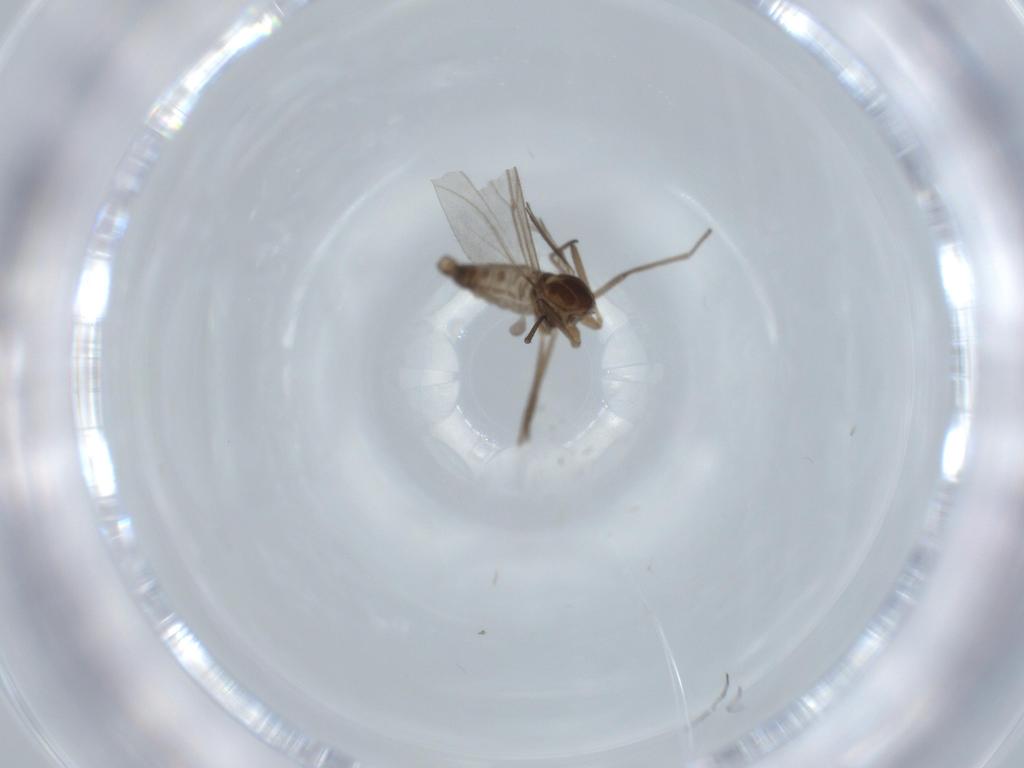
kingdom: Animalia
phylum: Arthropoda
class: Insecta
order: Diptera
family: Cecidomyiidae
